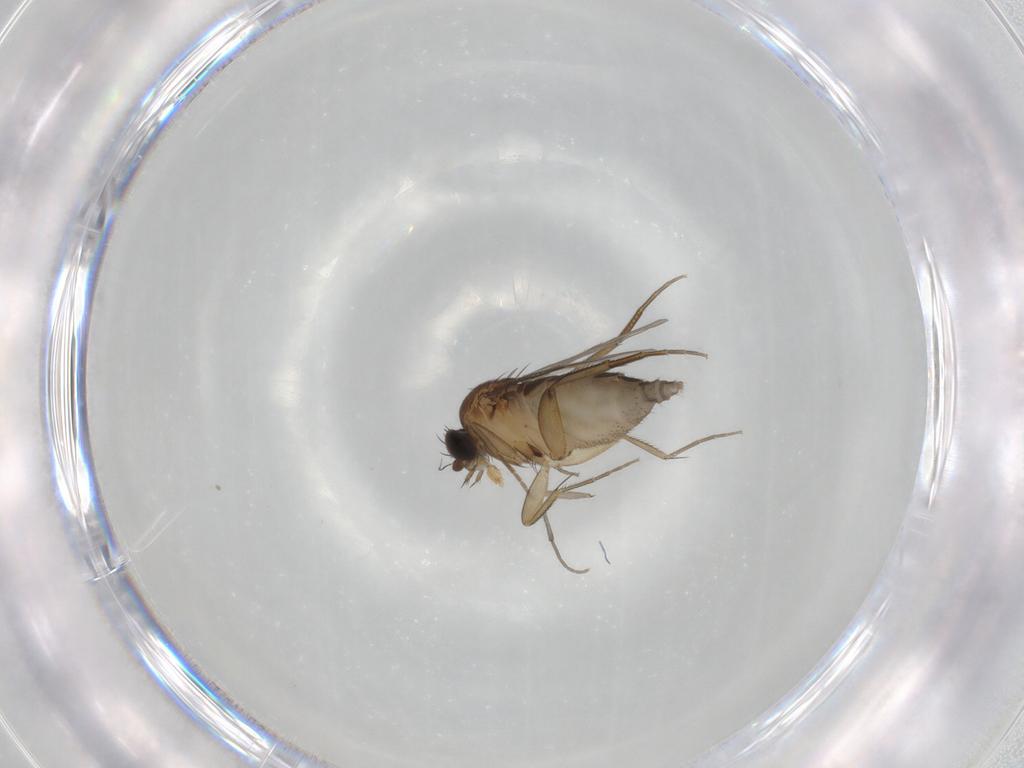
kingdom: Animalia
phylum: Arthropoda
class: Insecta
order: Diptera
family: Phoridae
